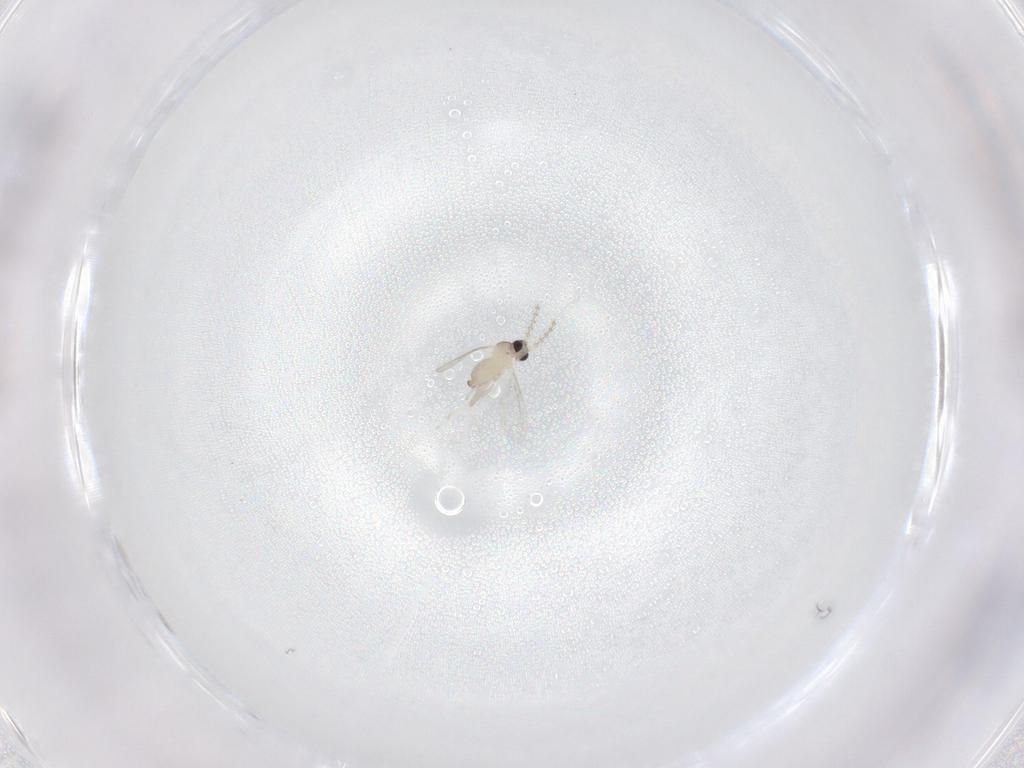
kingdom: Animalia
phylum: Arthropoda
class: Insecta
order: Diptera
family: Cecidomyiidae
